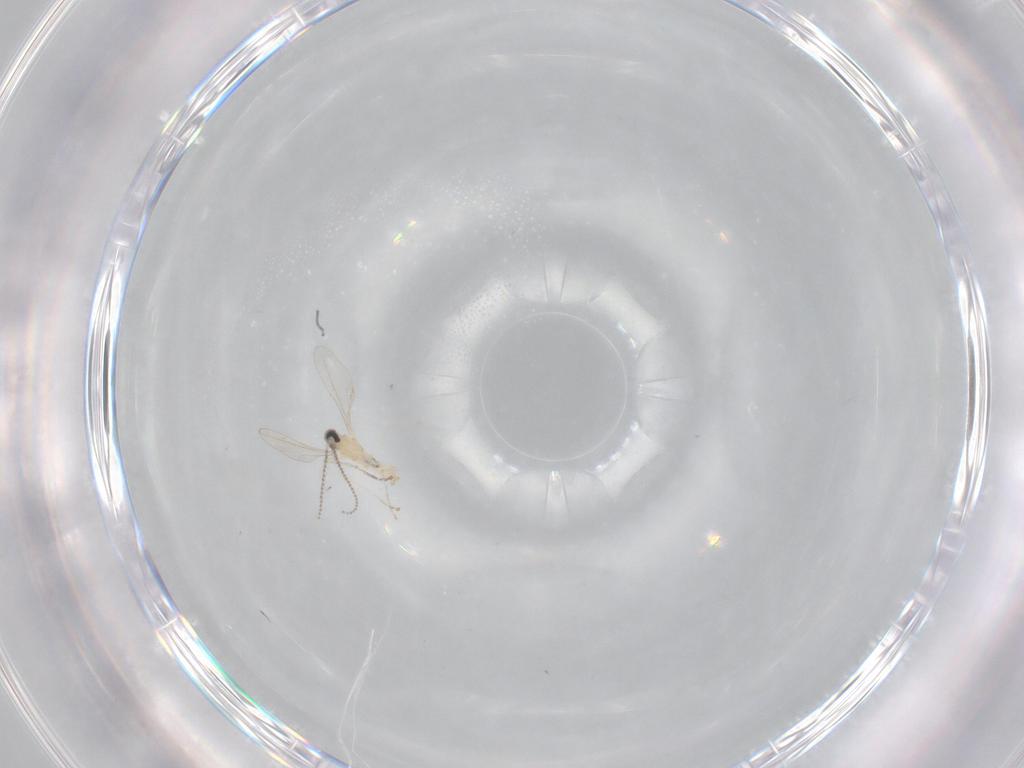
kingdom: Animalia
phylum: Arthropoda
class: Insecta
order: Diptera
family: Cecidomyiidae
